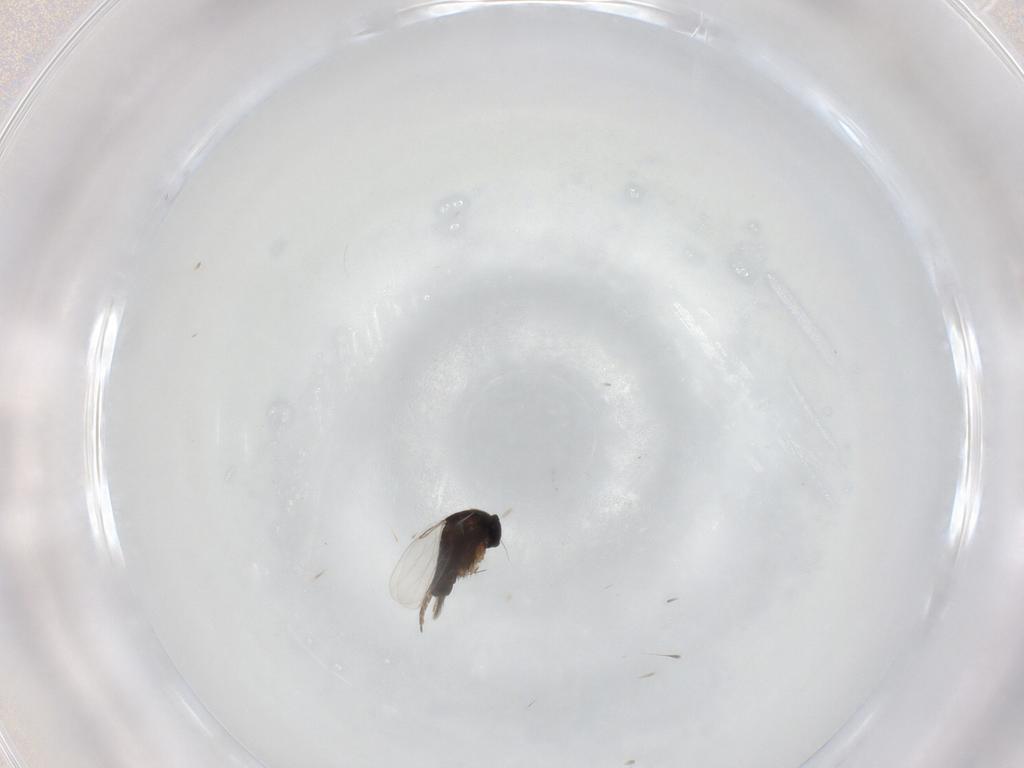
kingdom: Animalia
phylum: Arthropoda
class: Insecta
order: Diptera
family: Phoridae
